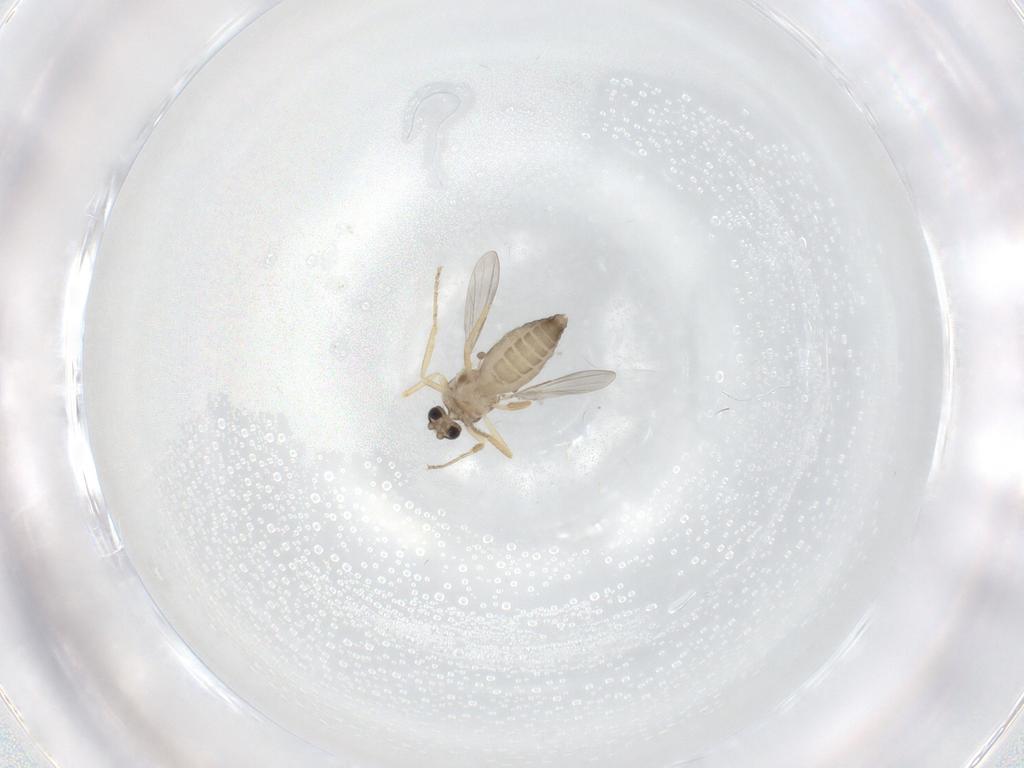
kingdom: Animalia
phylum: Arthropoda
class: Insecta
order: Diptera
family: Ceratopogonidae
